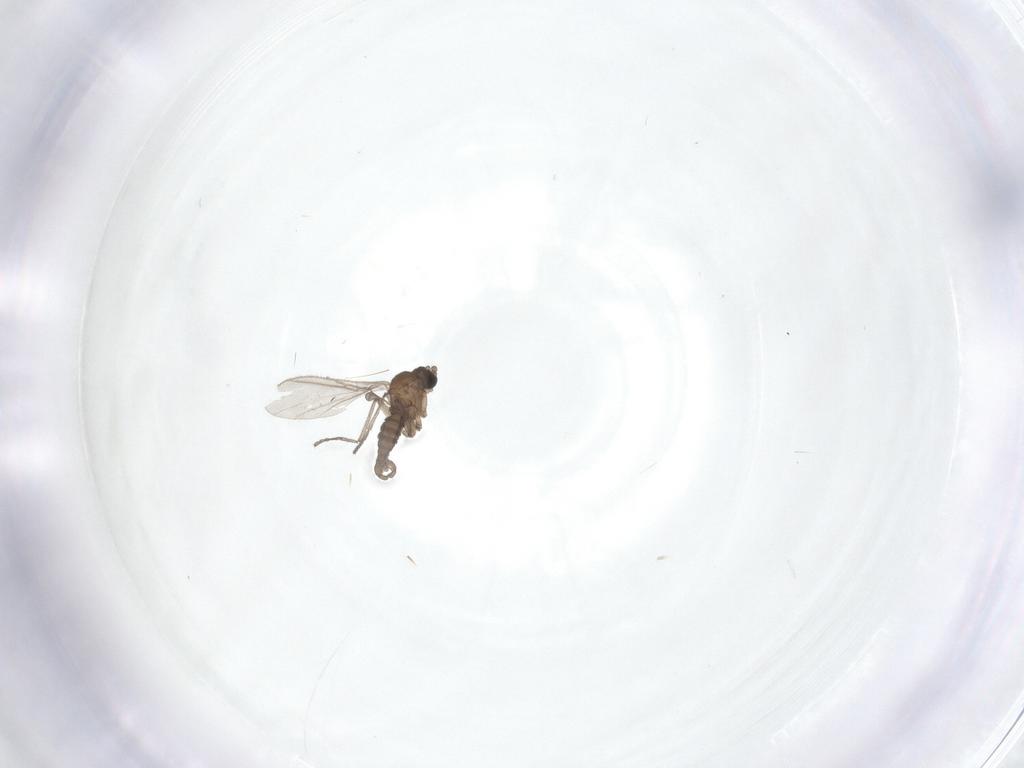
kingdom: Animalia
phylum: Arthropoda
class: Insecta
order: Diptera
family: Sciaridae
